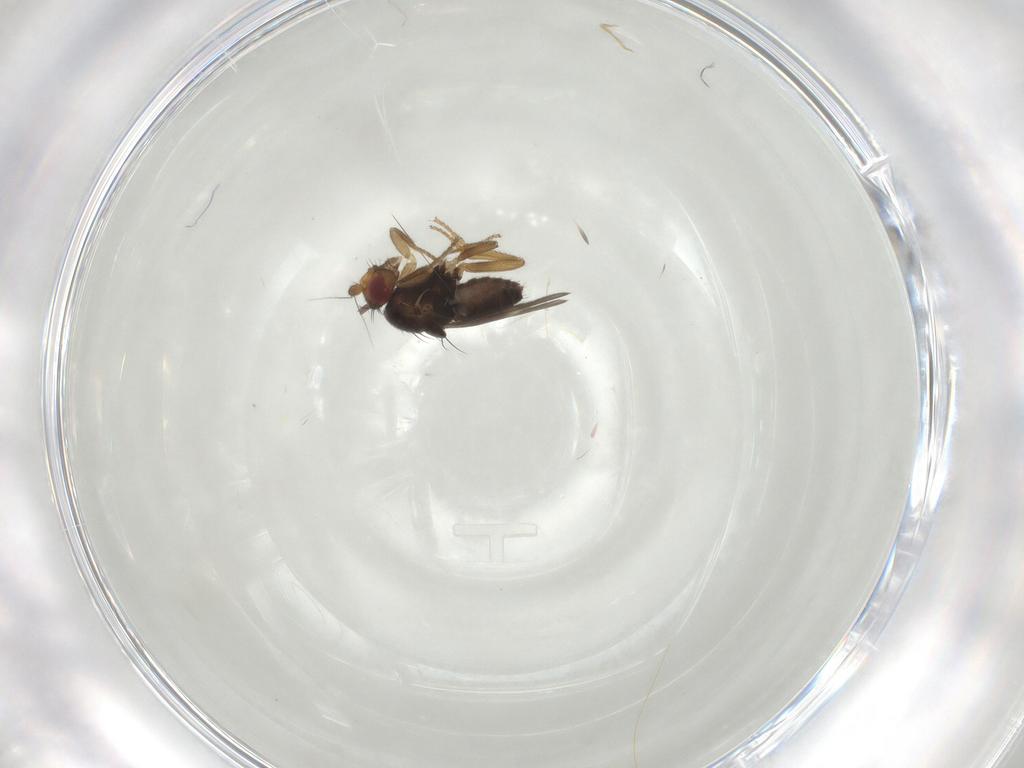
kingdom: Animalia
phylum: Arthropoda
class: Insecta
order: Diptera
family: Sphaeroceridae
